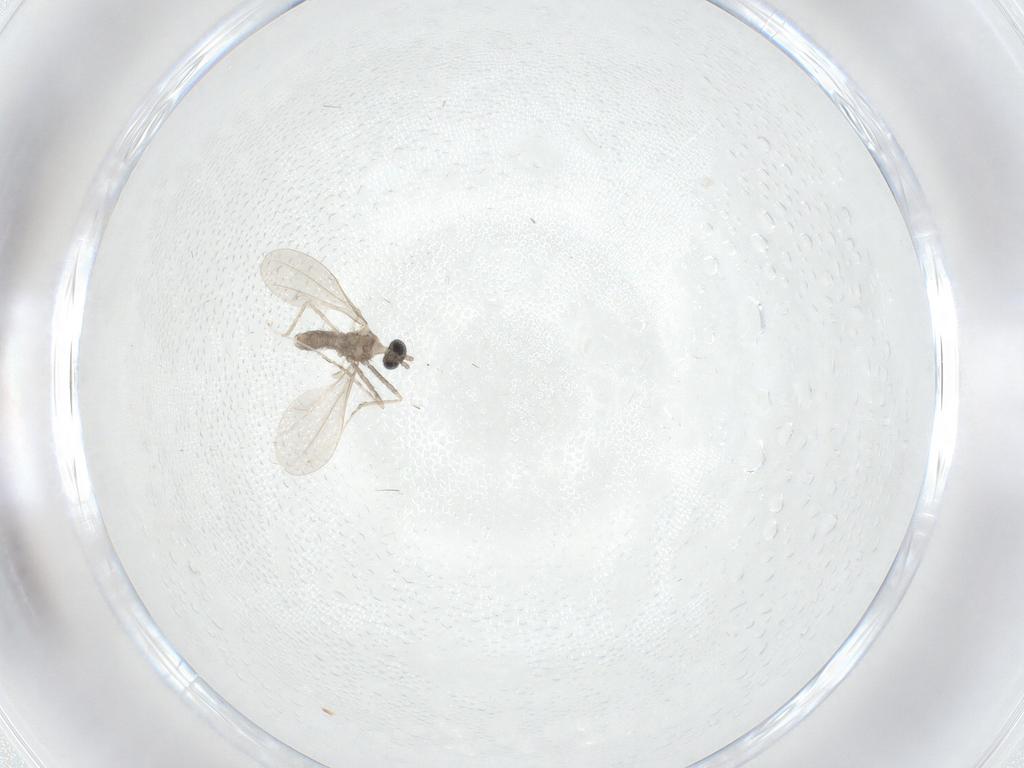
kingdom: Animalia
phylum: Arthropoda
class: Insecta
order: Diptera
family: Cecidomyiidae
